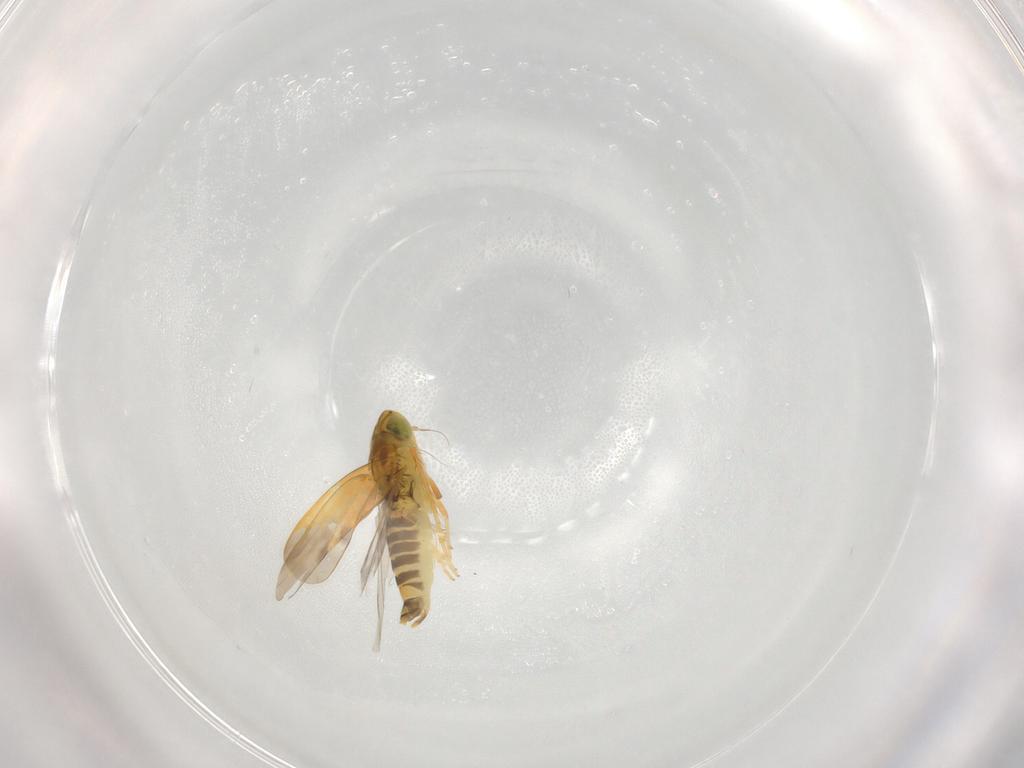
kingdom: Animalia
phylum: Arthropoda
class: Insecta
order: Hemiptera
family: Cicadellidae
